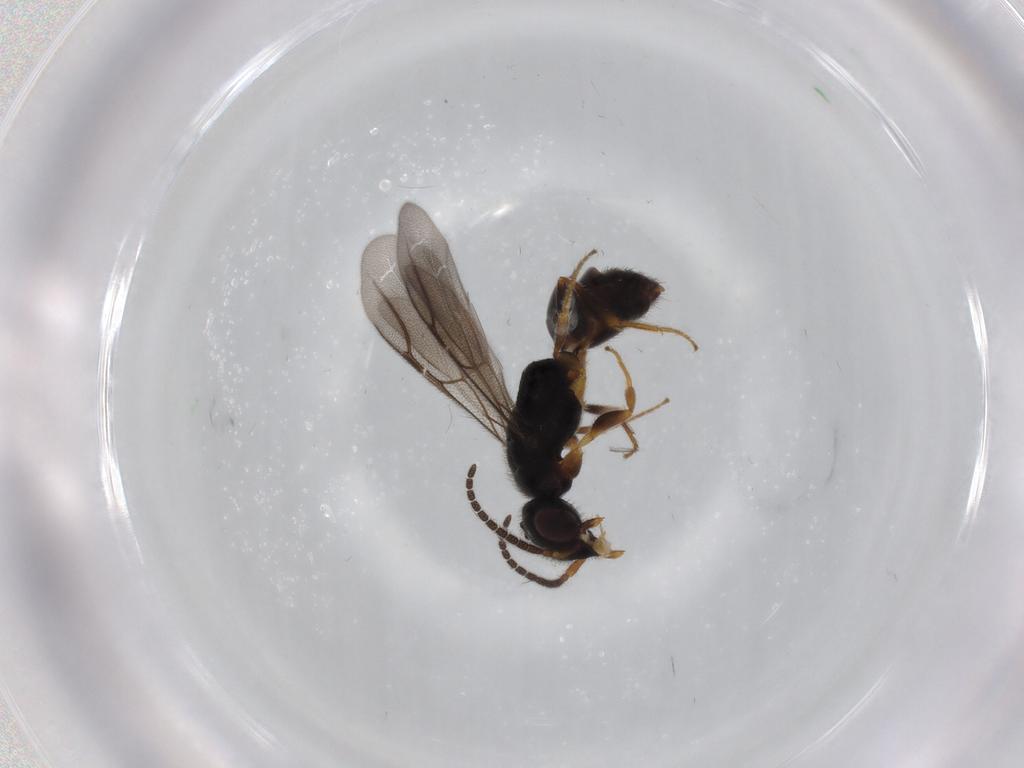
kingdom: Animalia
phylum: Arthropoda
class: Insecta
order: Hymenoptera
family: Bethylidae
